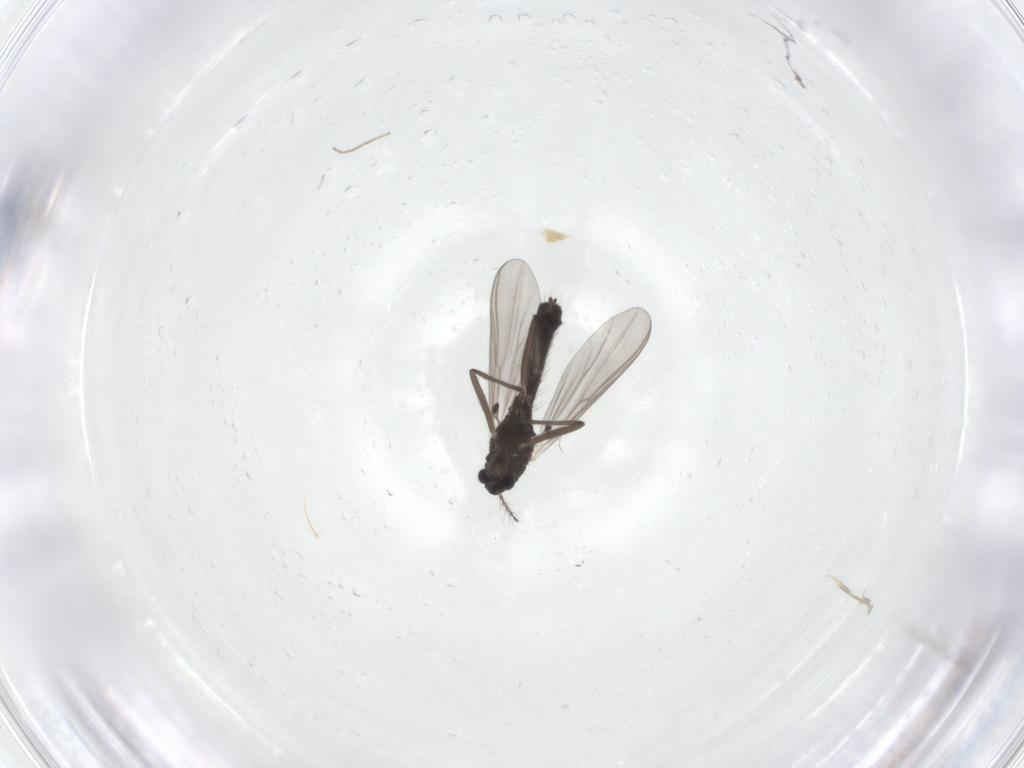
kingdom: Animalia
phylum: Arthropoda
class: Insecta
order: Diptera
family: Chironomidae
